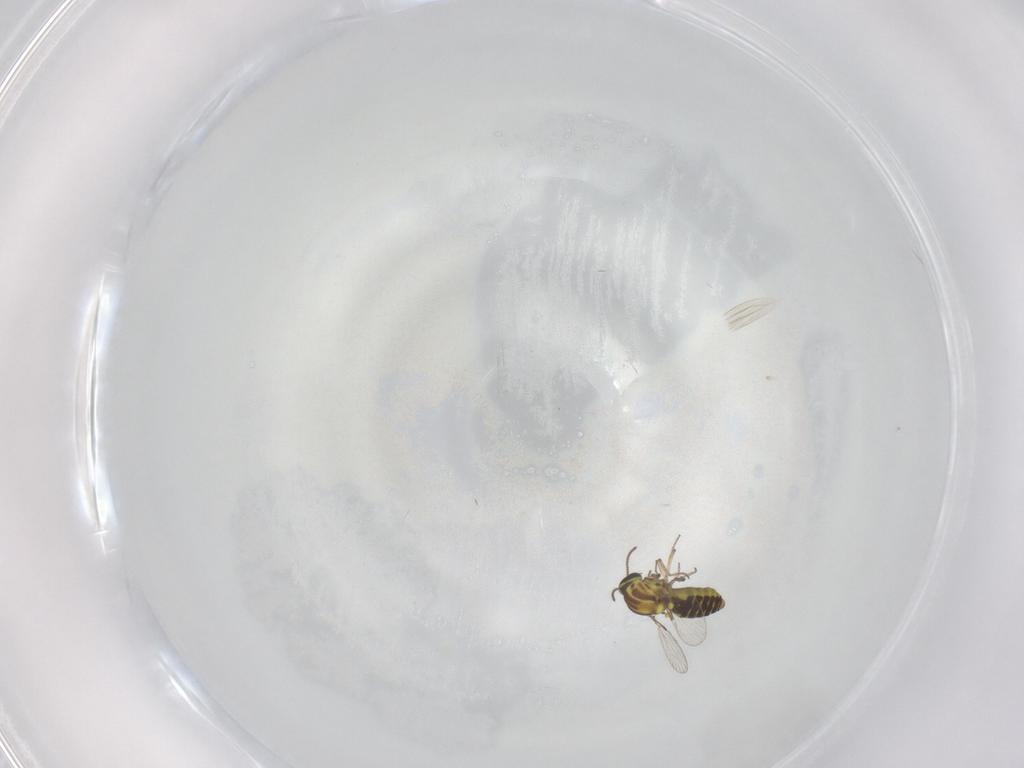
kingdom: Animalia
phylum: Arthropoda
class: Insecta
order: Diptera
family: Ceratopogonidae
